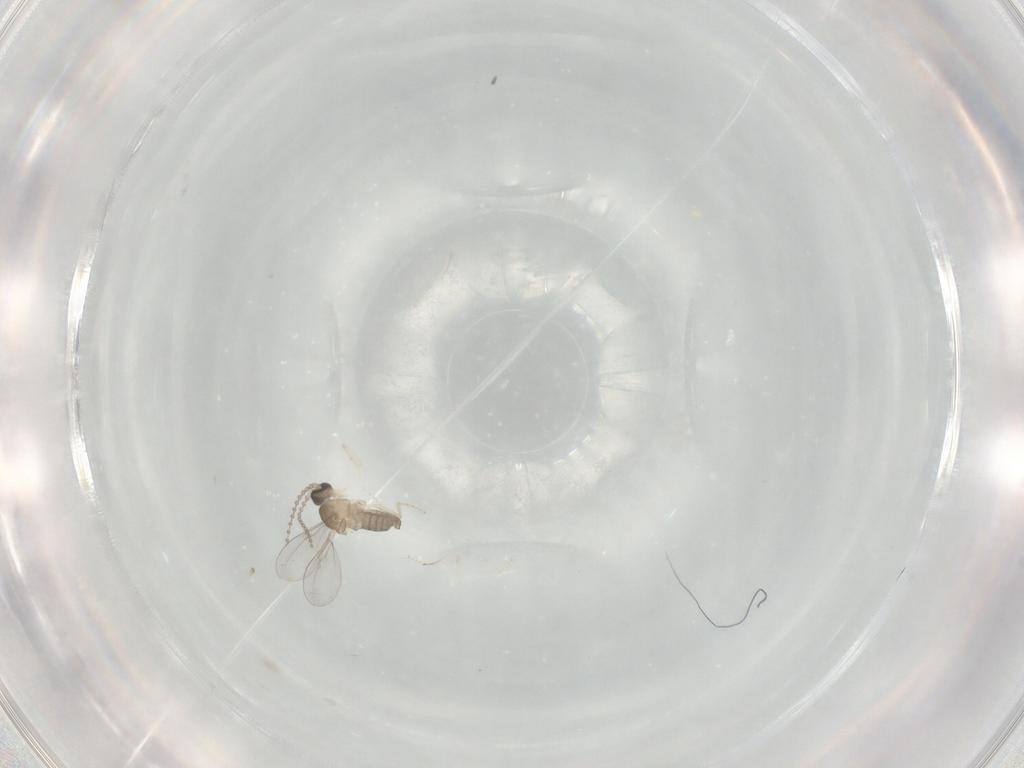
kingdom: Animalia
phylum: Arthropoda
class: Insecta
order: Diptera
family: Cecidomyiidae
